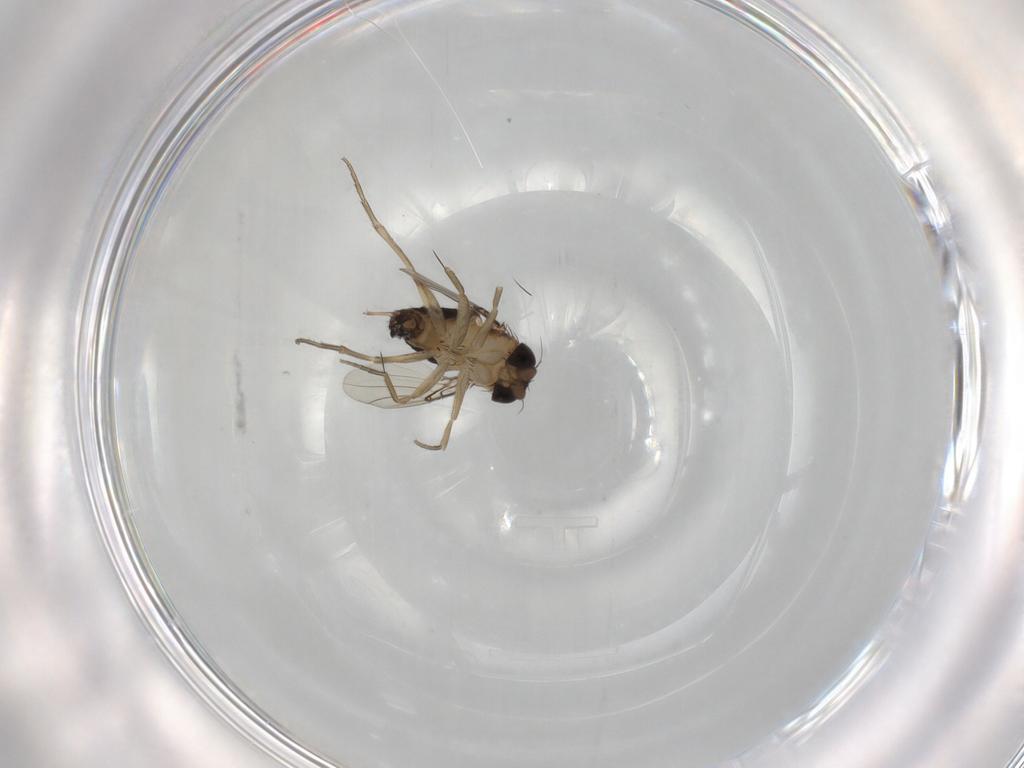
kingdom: Animalia
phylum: Arthropoda
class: Insecta
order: Diptera
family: Phoridae
